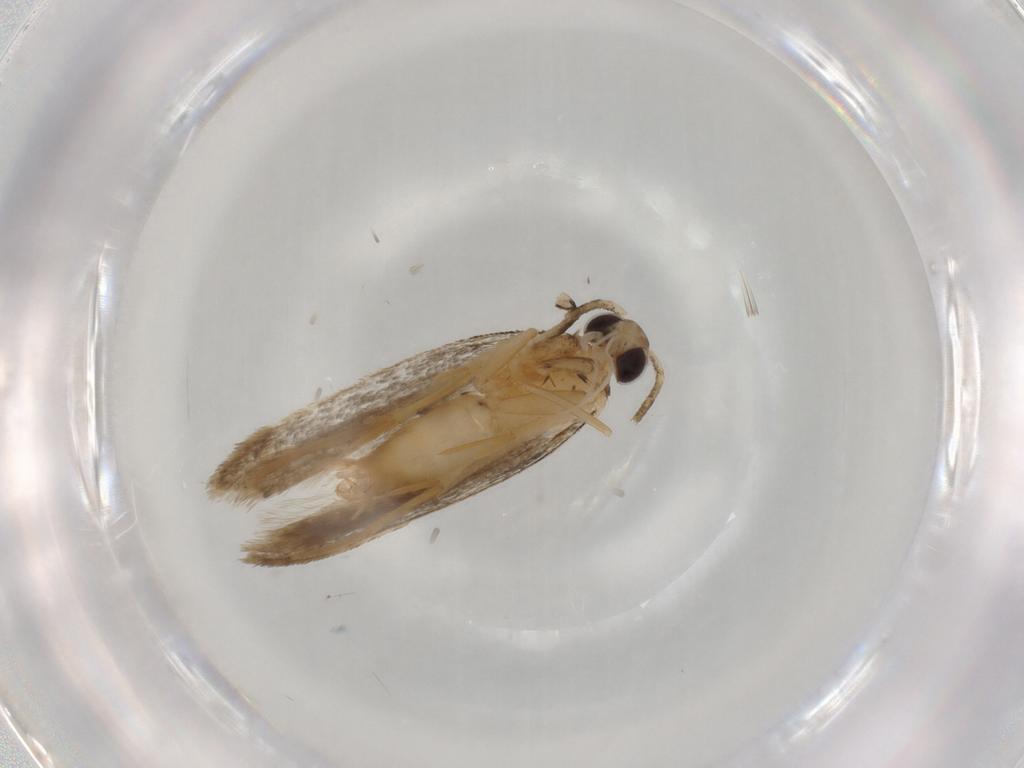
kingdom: Animalia
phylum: Arthropoda
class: Insecta
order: Lepidoptera
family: Autostichidae
